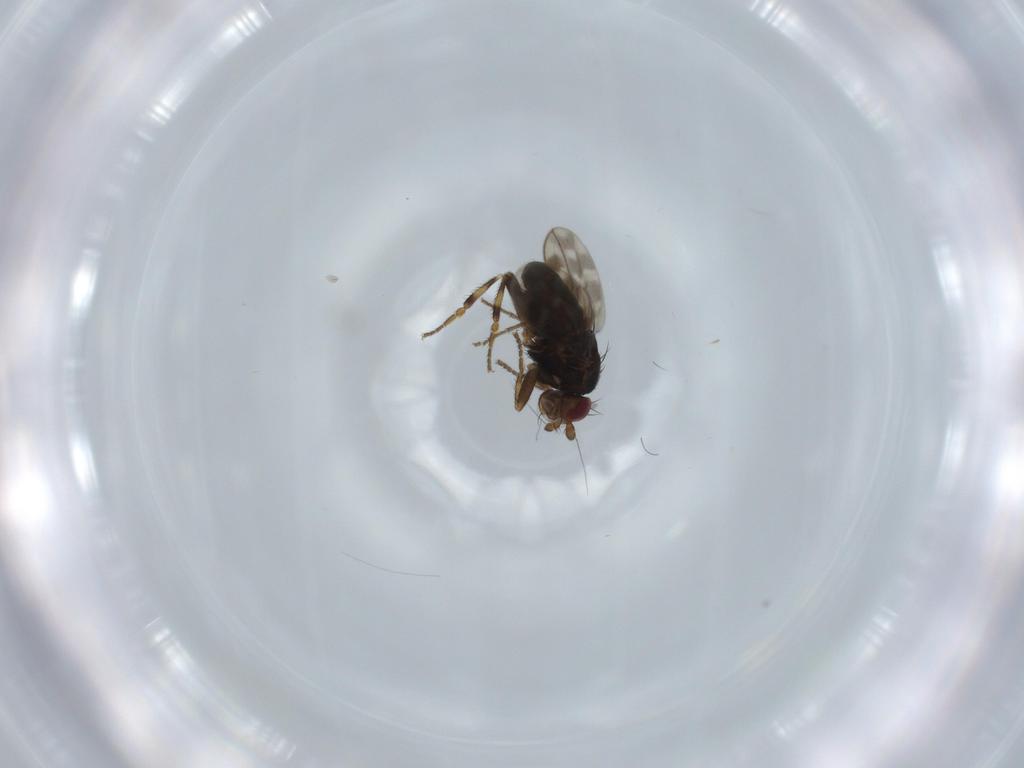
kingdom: Animalia
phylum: Arthropoda
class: Insecta
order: Diptera
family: Sphaeroceridae
